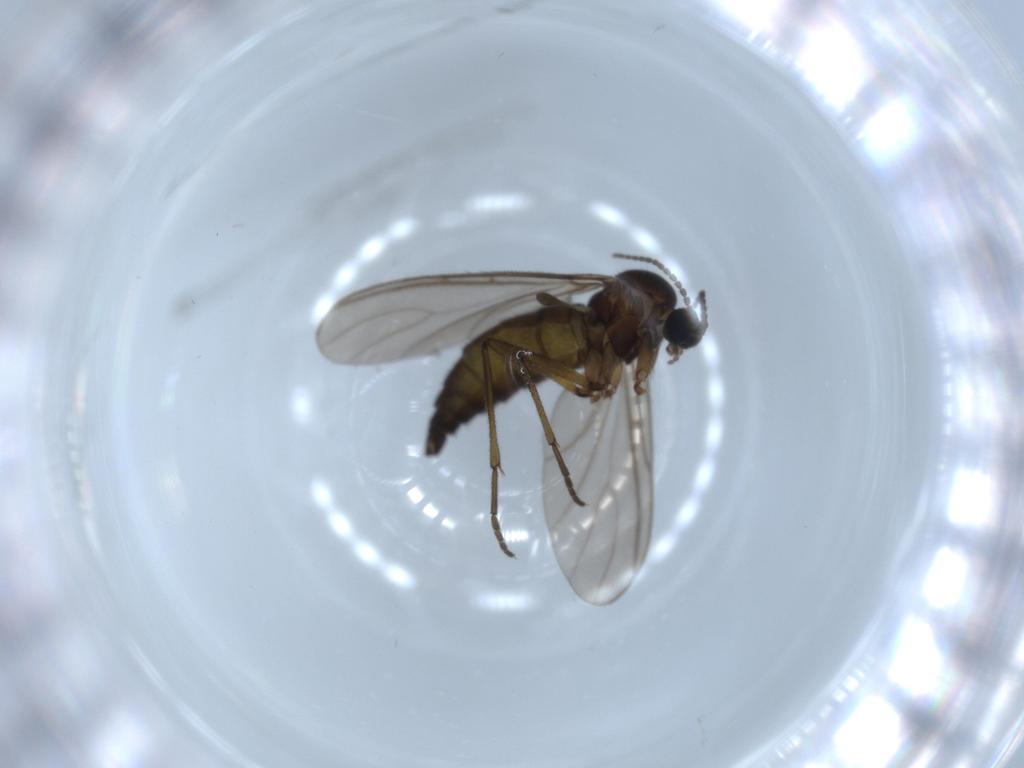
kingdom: Animalia
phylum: Arthropoda
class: Insecta
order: Diptera
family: Sciaridae
